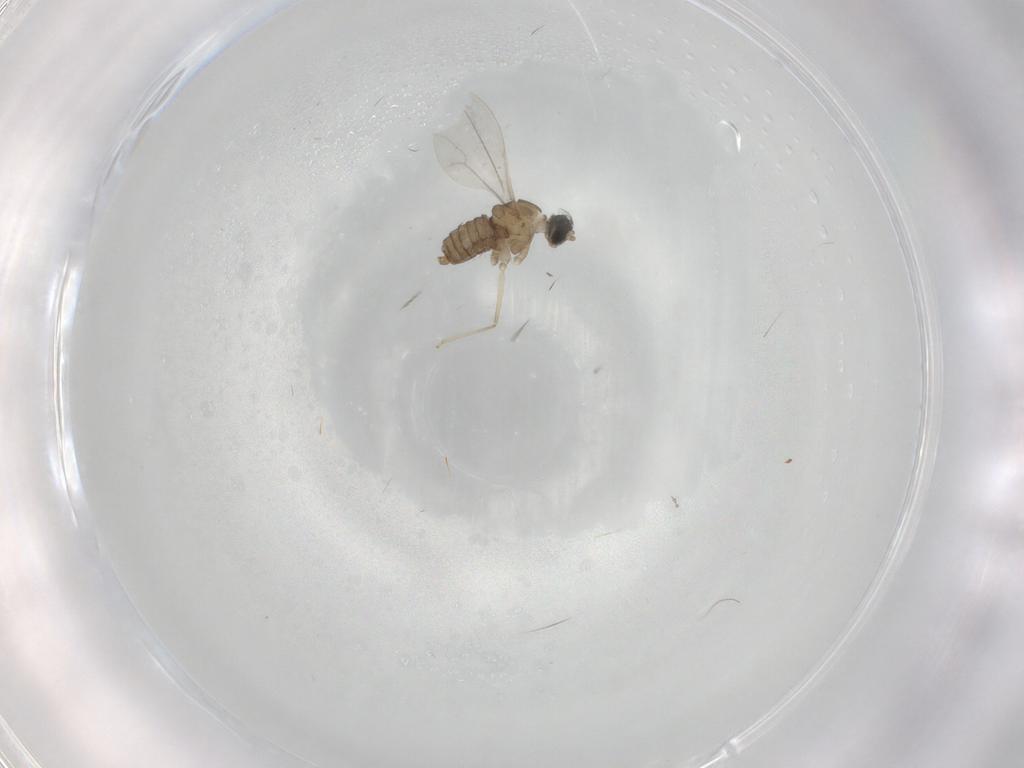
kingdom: Animalia
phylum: Arthropoda
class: Insecta
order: Diptera
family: Cecidomyiidae
